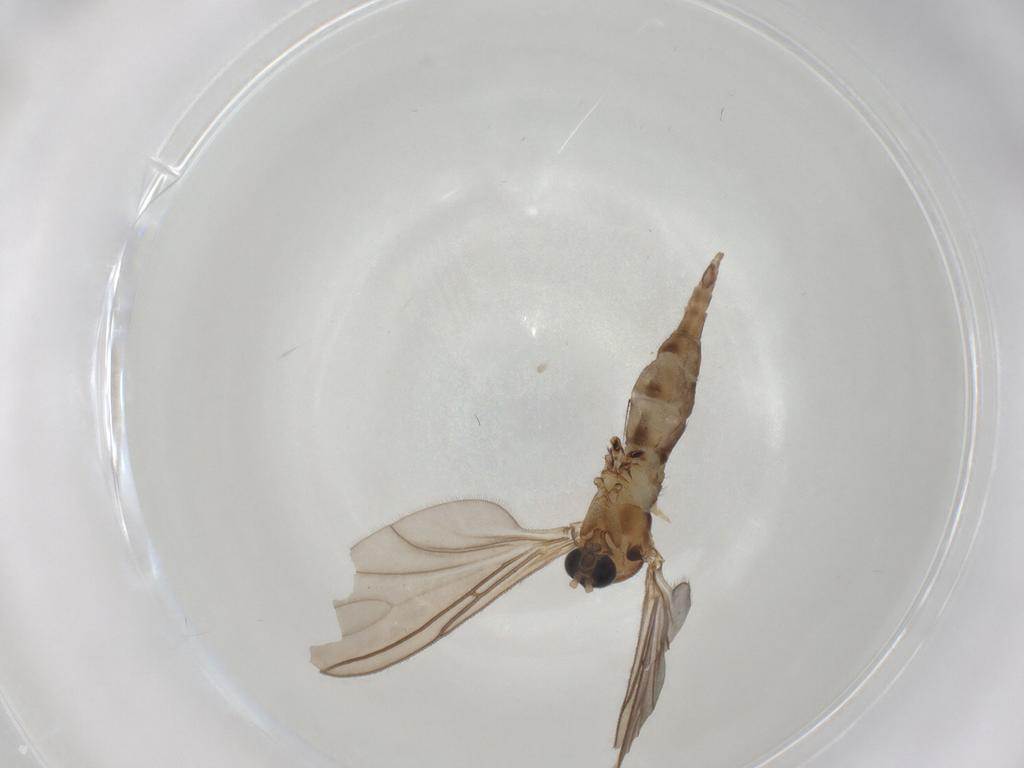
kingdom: Animalia
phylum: Arthropoda
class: Insecta
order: Diptera
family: Sciaridae
